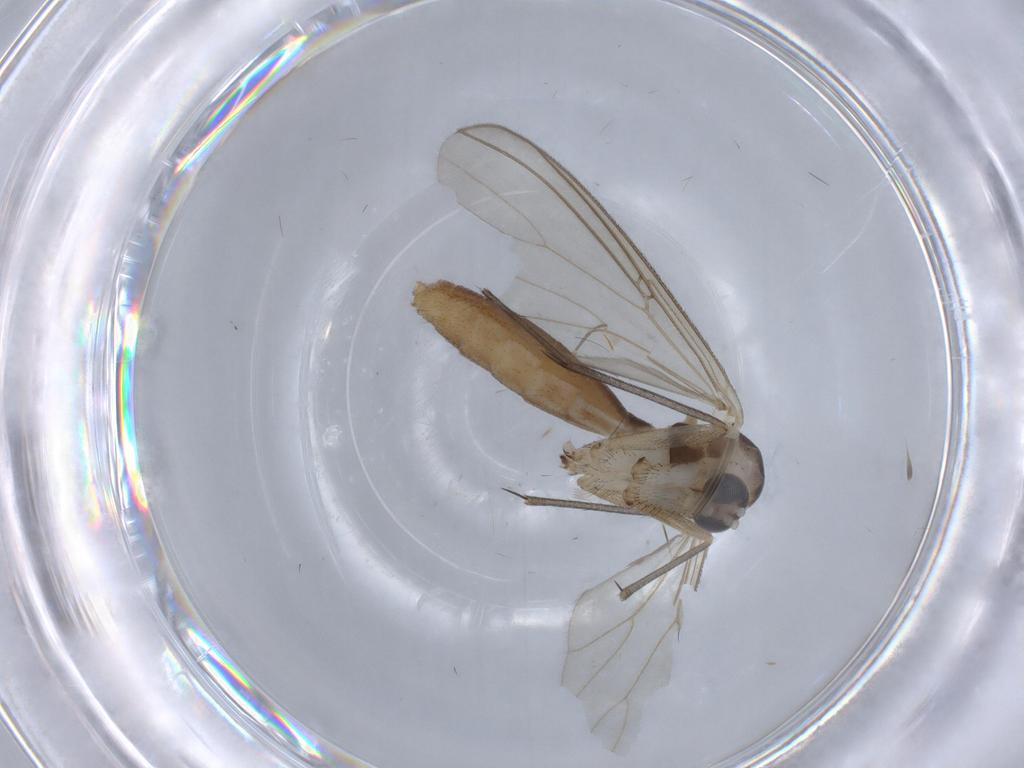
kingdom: Animalia
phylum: Arthropoda
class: Insecta
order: Diptera
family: Mycetophilidae
